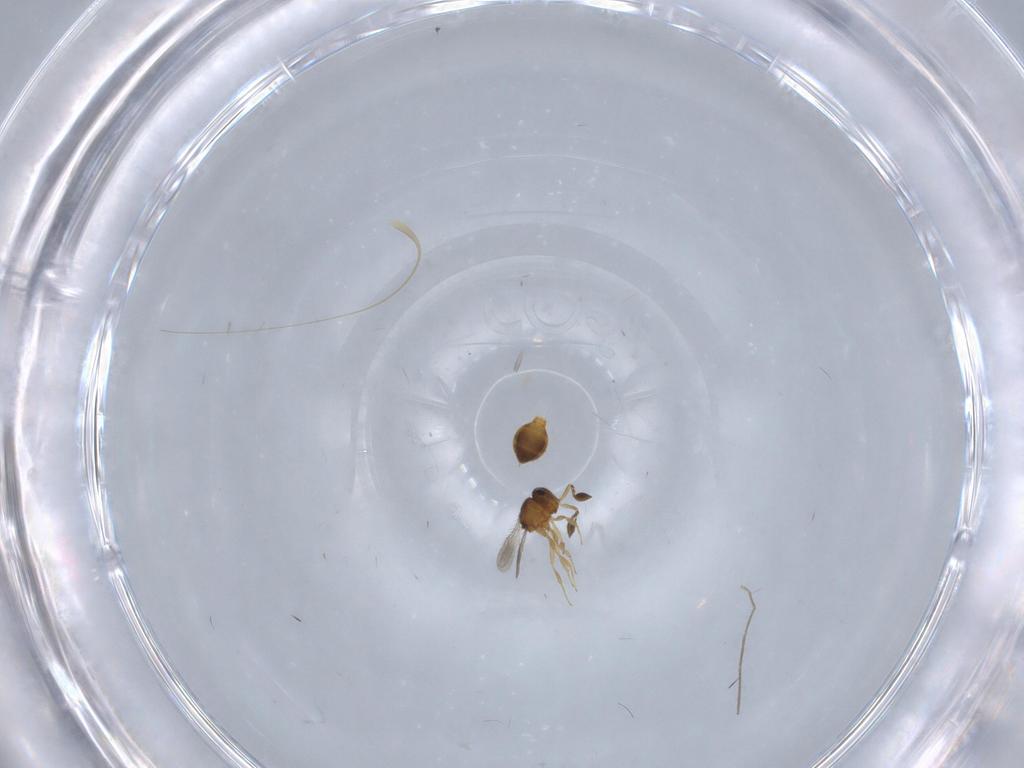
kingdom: Animalia
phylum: Arthropoda
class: Insecta
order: Hymenoptera
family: Scelionidae
